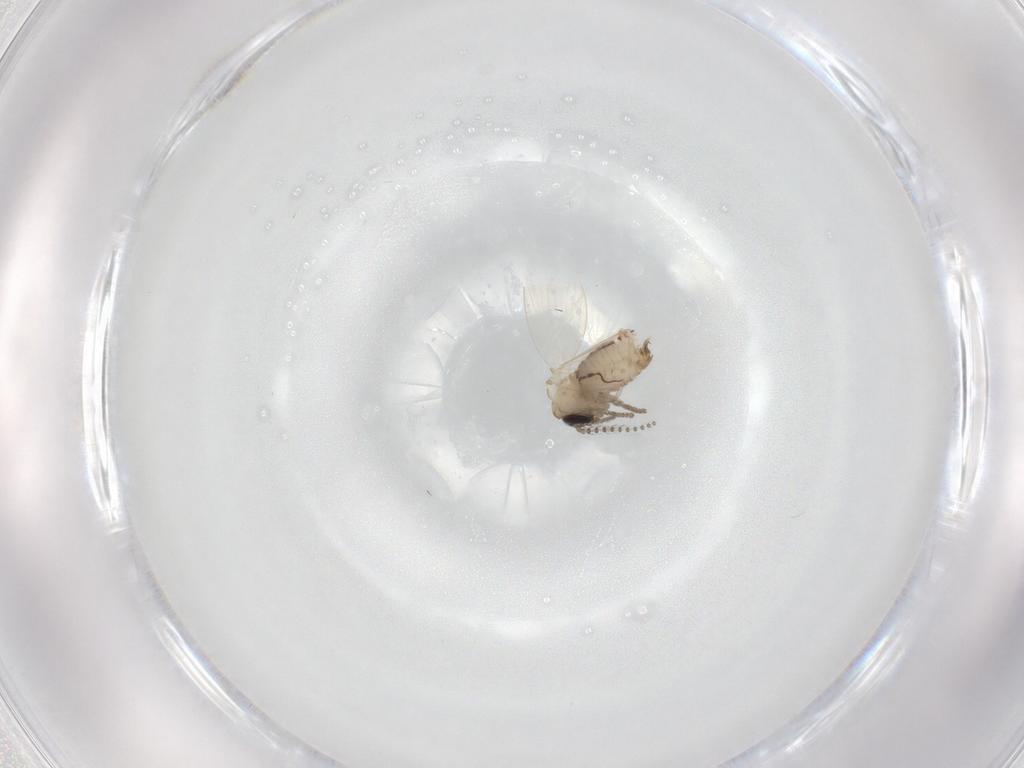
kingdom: Animalia
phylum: Arthropoda
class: Insecta
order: Diptera
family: Psychodidae
